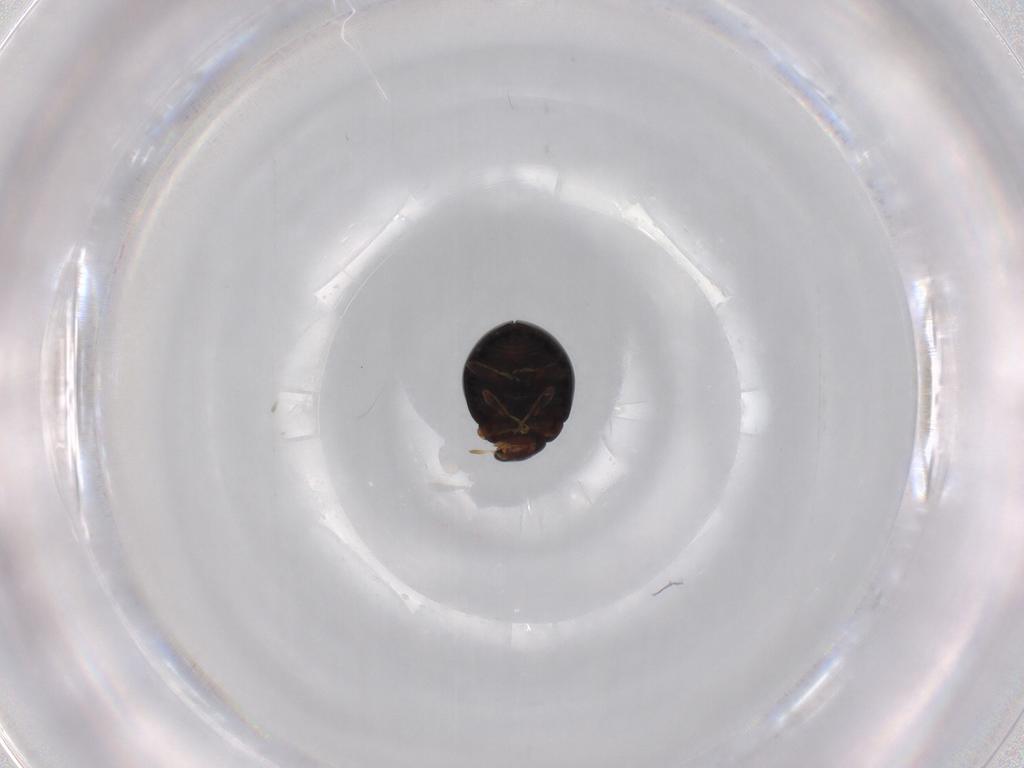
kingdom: Animalia
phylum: Arthropoda
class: Insecta
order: Coleoptera
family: Coccinellidae
